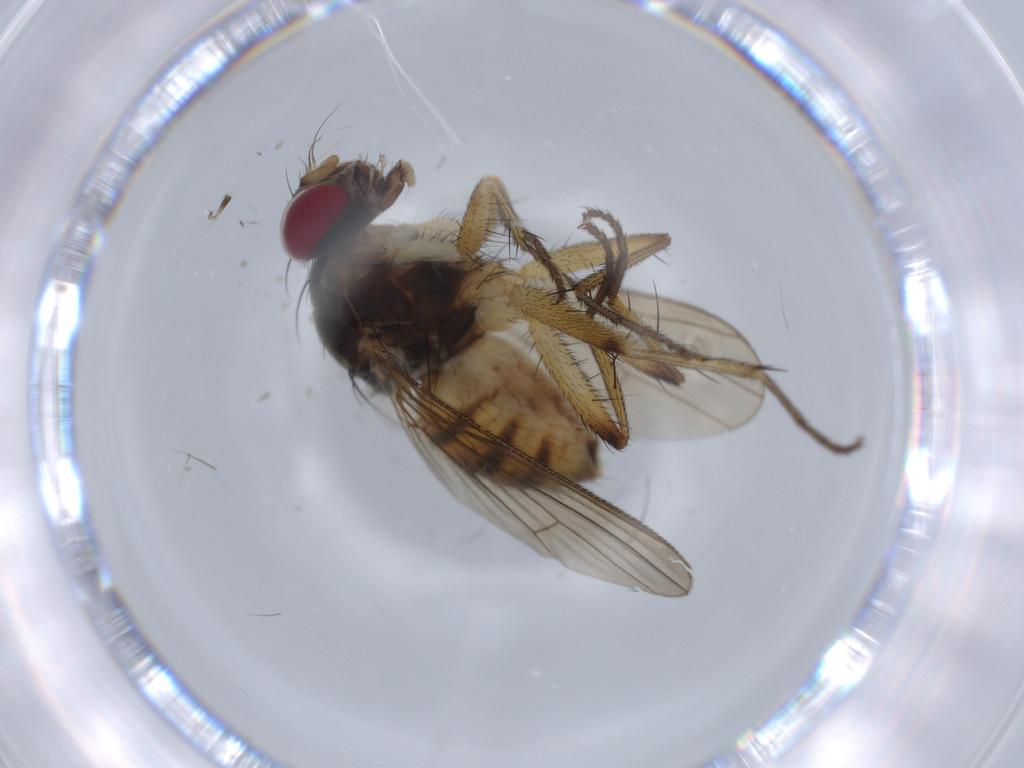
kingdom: Animalia
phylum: Arthropoda
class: Insecta
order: Diptera
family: Muscidae
